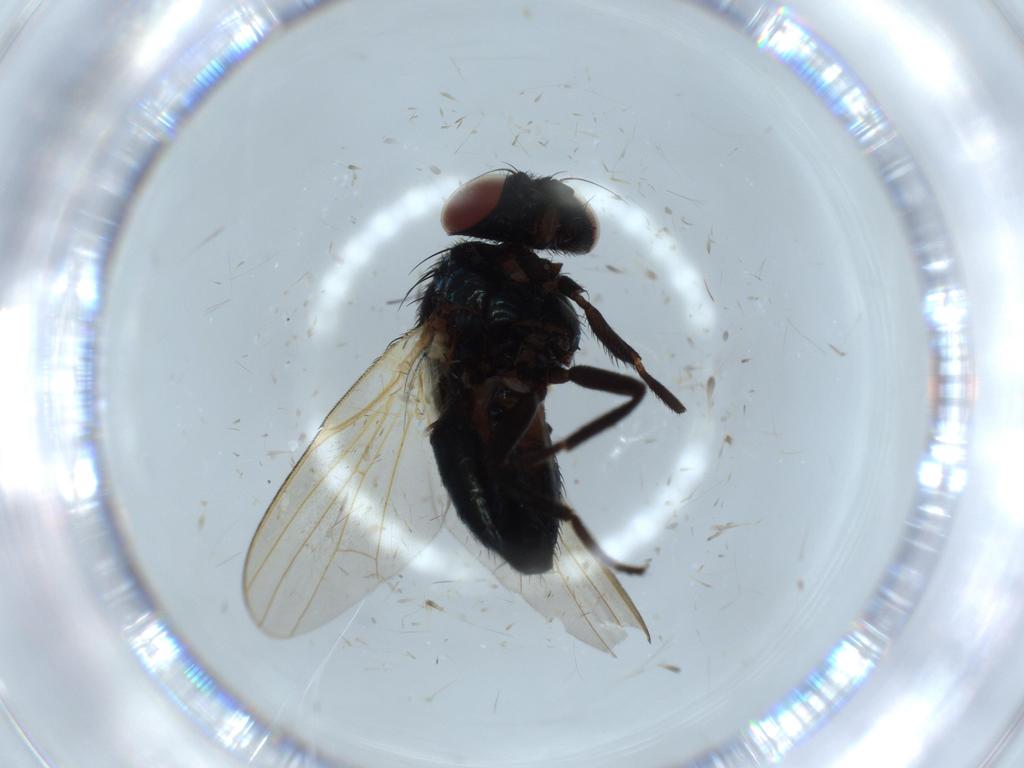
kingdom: Animalia
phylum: Arthropoda
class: Insecta
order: Diptera
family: Lonchaeidae
